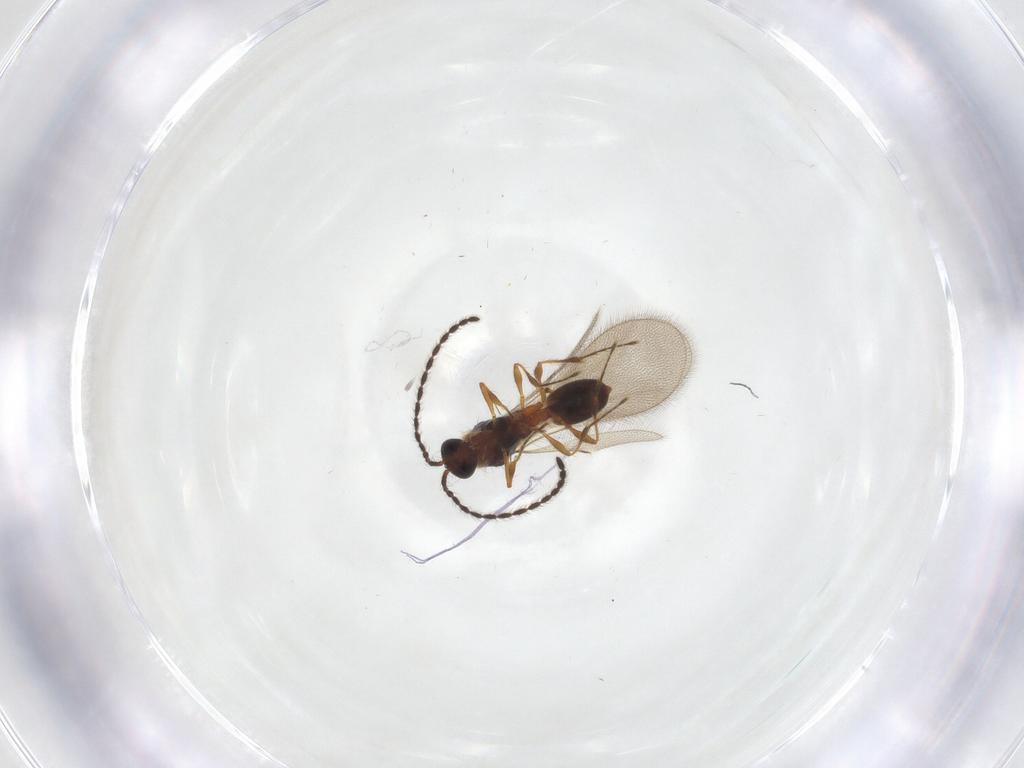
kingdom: Animalia
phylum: Arthropoda
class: Insecta
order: Hymenoptera
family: Diapriidae
